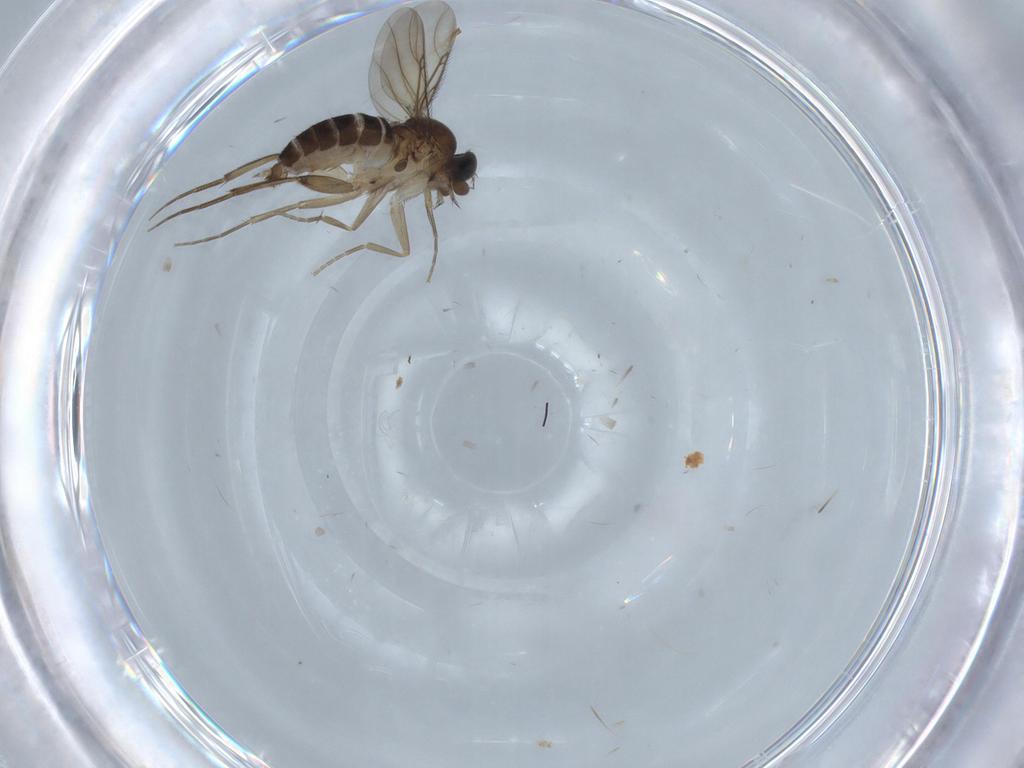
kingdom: Animalia
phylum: Arthropoda
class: Insecta
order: Diptera
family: Phoridae
